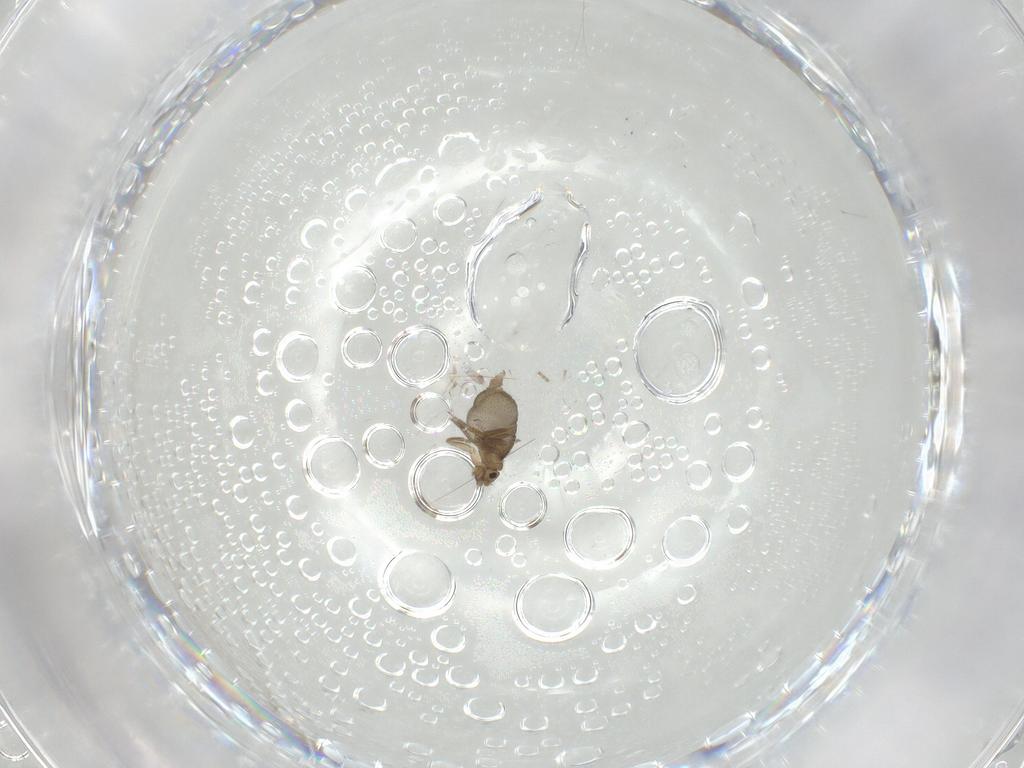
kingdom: Animalia
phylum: Arthropoda
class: Insecta
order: Diptera
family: Phoridae
